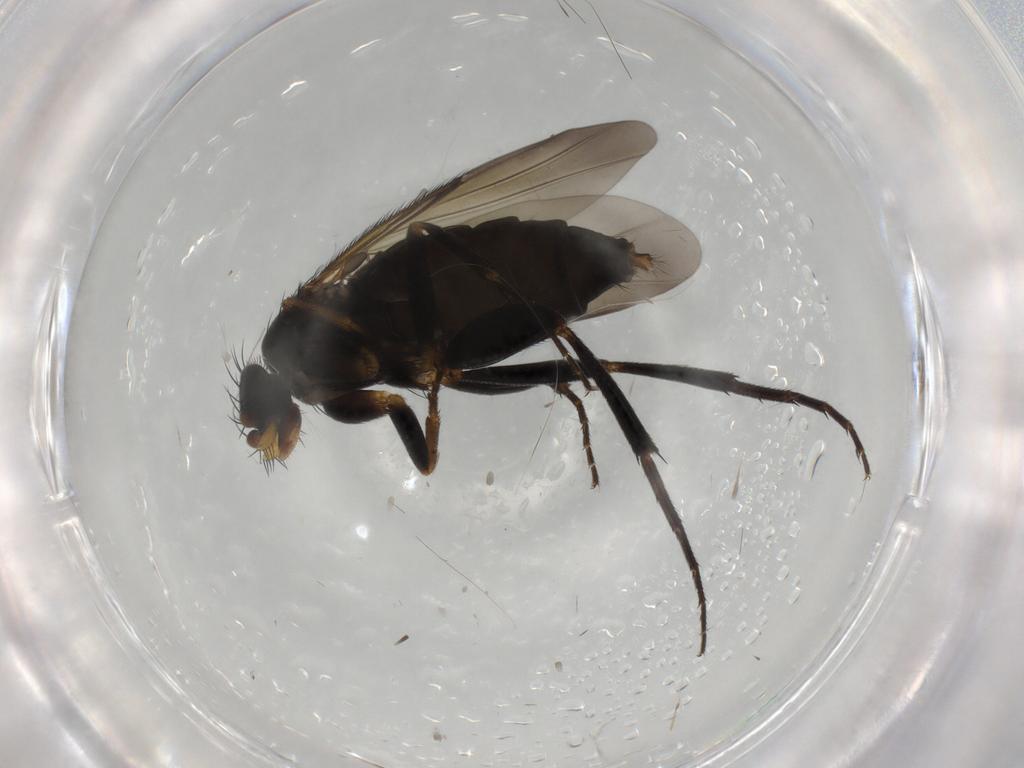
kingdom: Animalia
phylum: Arthropoda
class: Insecta
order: Diptera
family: Phoridae
